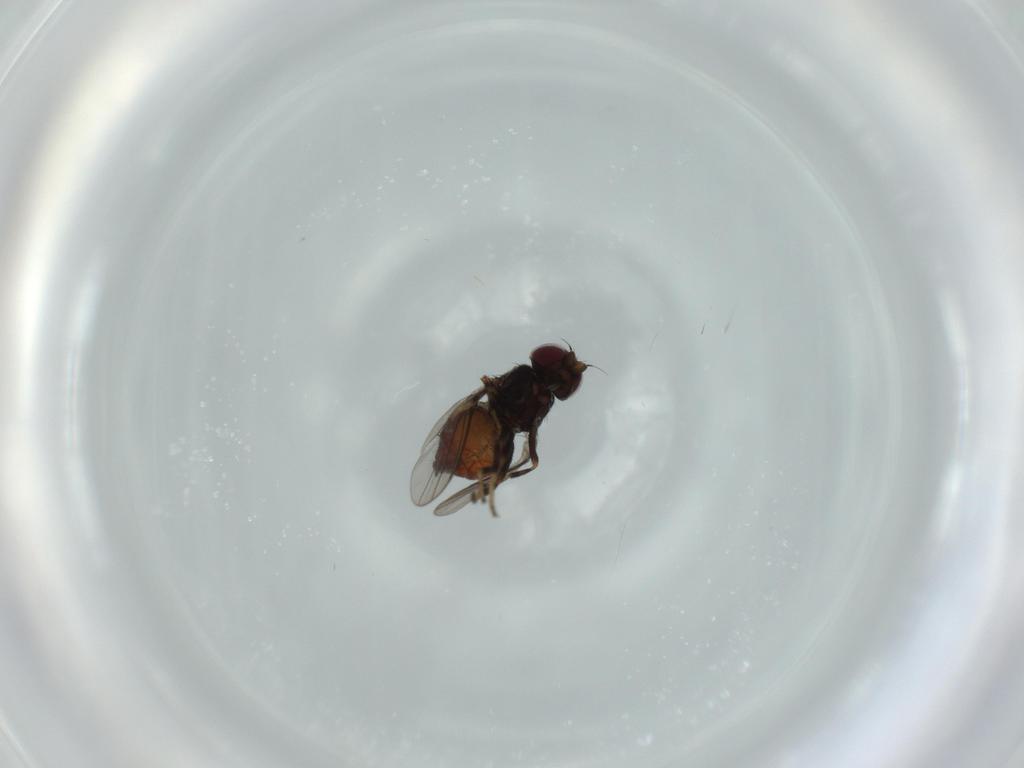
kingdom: Animalia
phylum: Arthropoda
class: Insecta
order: Diptera
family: Chloropidae
